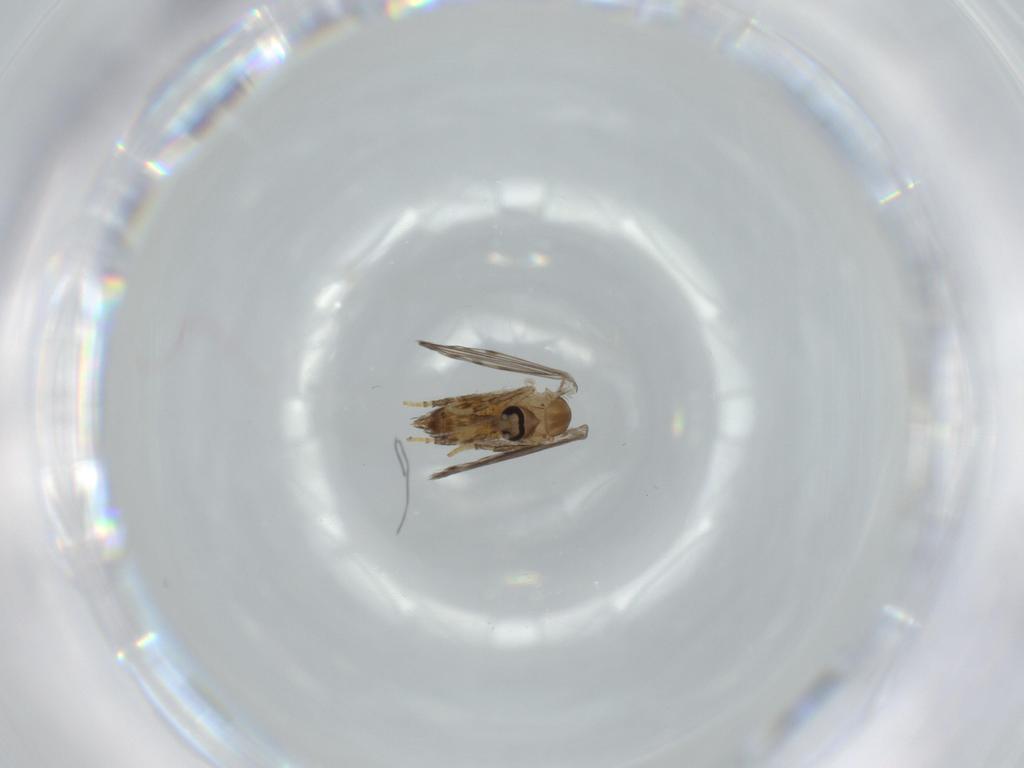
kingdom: Animalia
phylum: Arthropoda
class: Insecta
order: Diptera
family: Psychodidae
